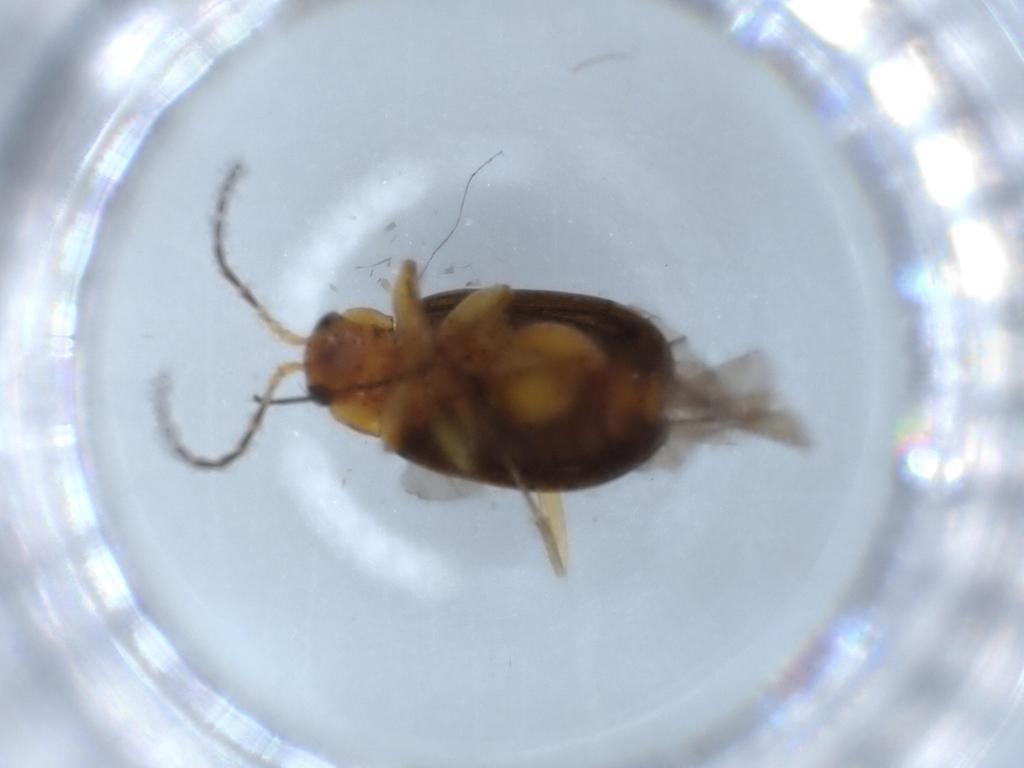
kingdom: Animalia
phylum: Arthropoda
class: Insecta
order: Coleoptera
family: Chrysomelidae
